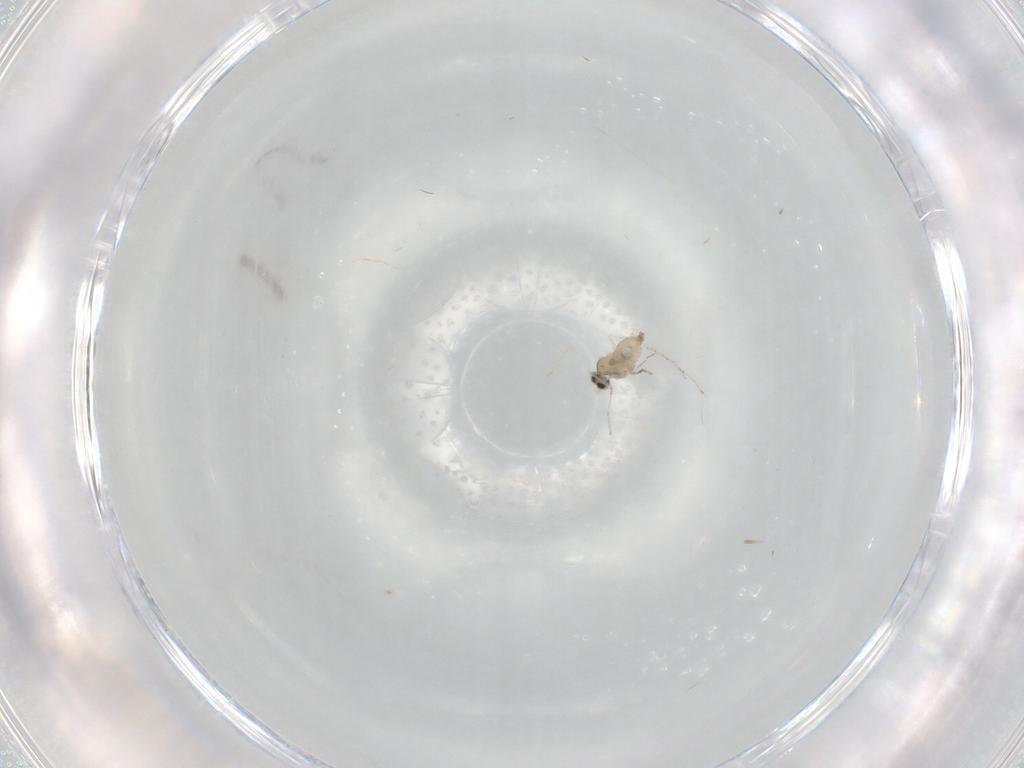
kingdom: Animalia
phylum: Arthropoda
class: Insecta
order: Diptera
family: Cecidomyiidae
